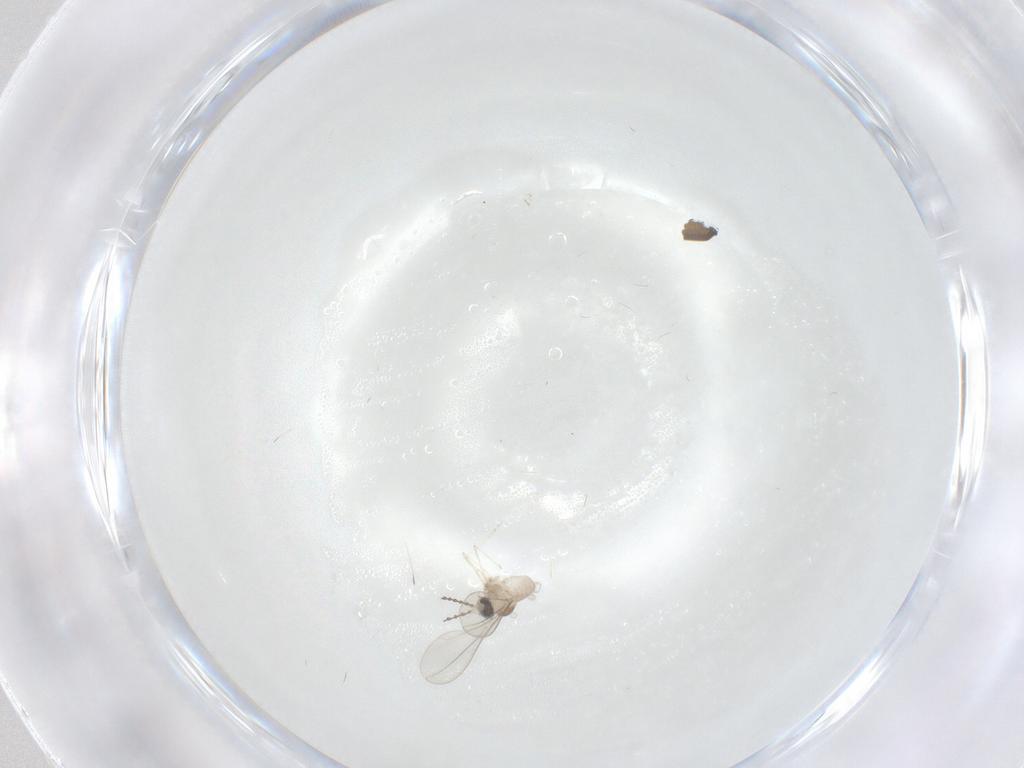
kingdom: Animalia
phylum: Arthropoda
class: Insecta
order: Diptera
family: Cecidomyiidae
